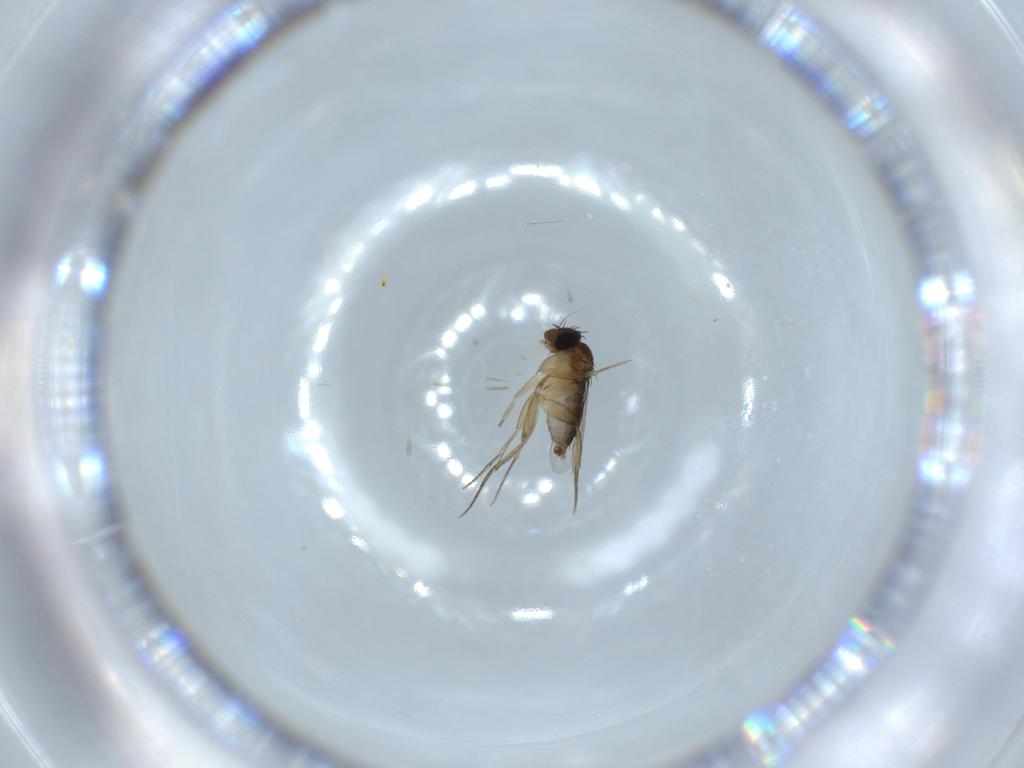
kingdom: Animalia
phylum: Arthropoda
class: Insecta
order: Diptera
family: Phoridae
